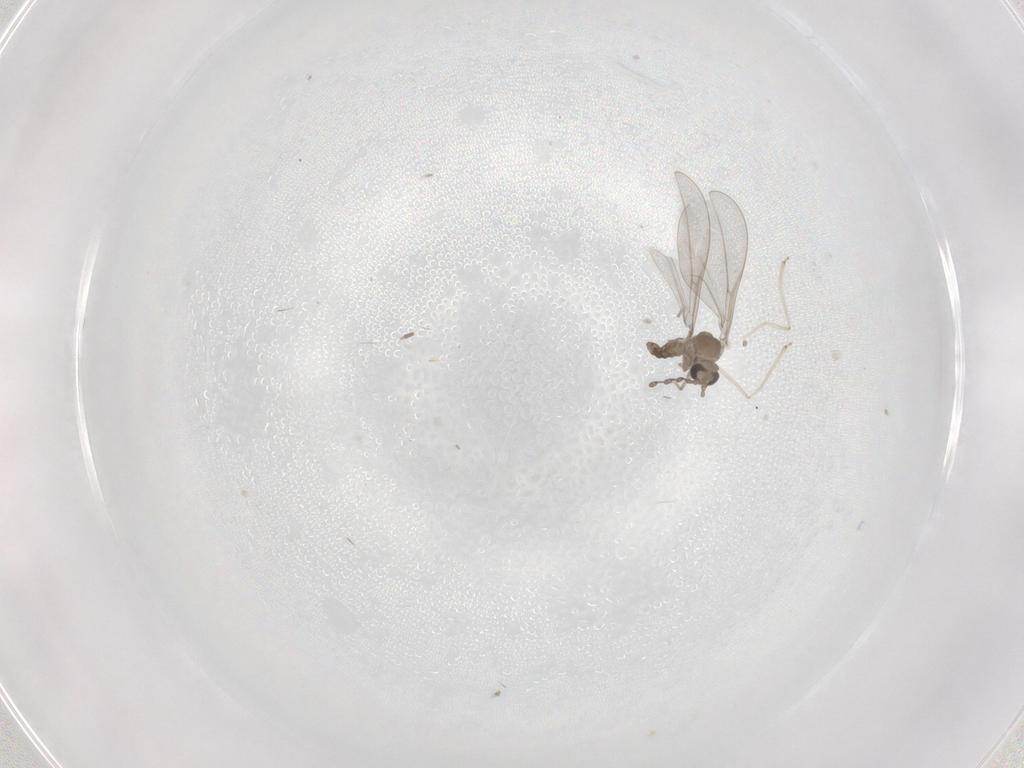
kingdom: Animalia
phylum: Arthropoda
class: Insecta
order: Diptera
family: Cecidomyiidae
